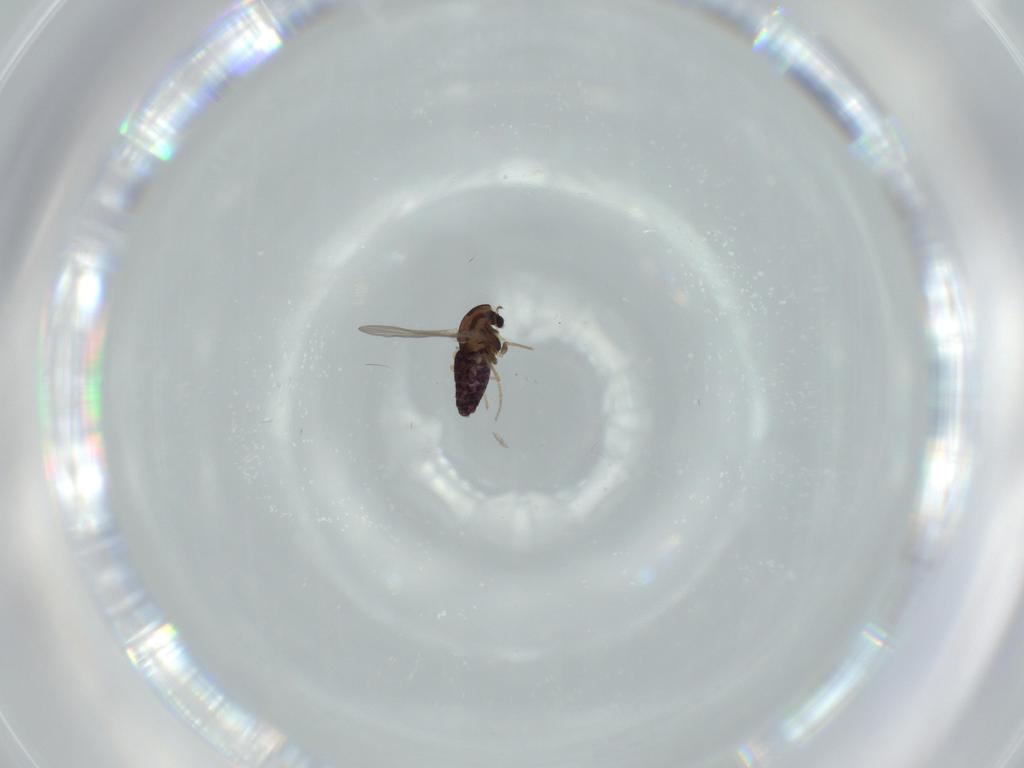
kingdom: Animalia
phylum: Arthropoda
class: Insecta
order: Diptera
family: Chironomidae
